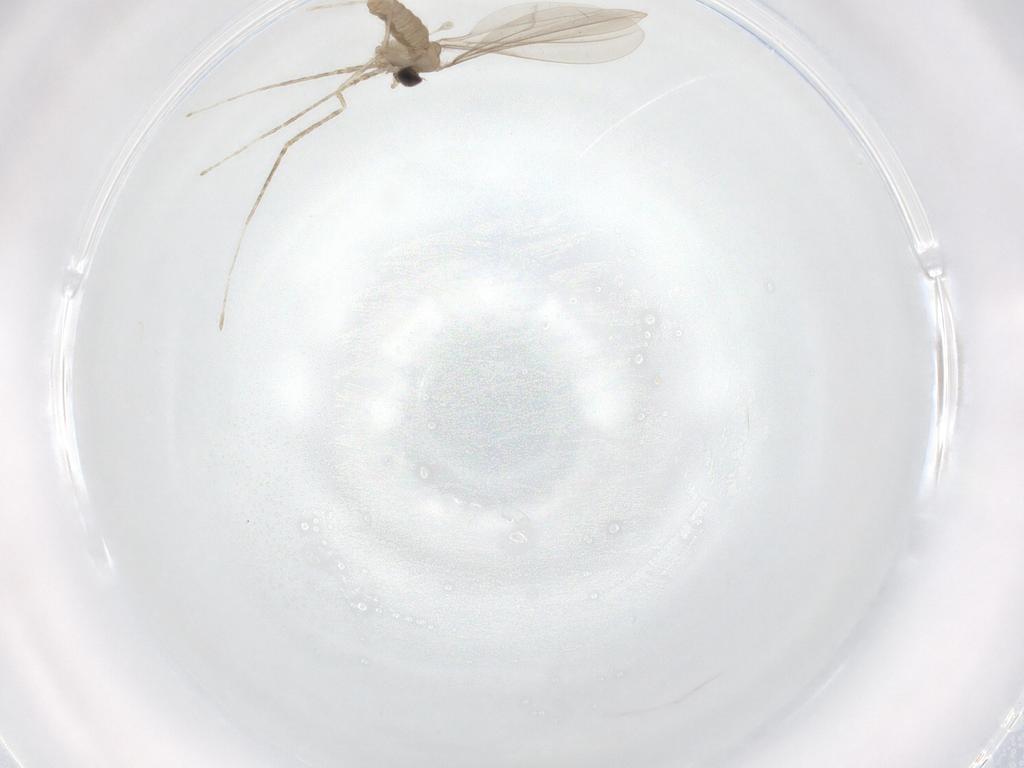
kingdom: Animalia
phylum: Arthropoda
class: Insecta
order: Diptera
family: Cecidomyiidae
